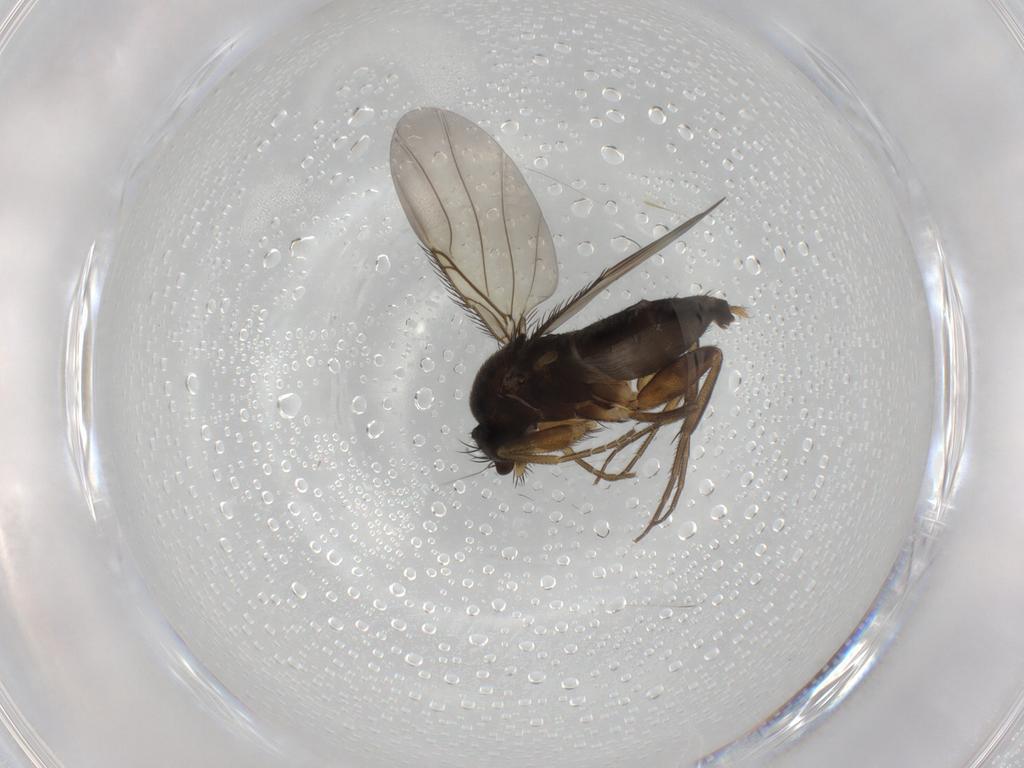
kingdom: Animalia
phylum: Arthropoda
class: Insecta
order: Diptera
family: Phoridae
